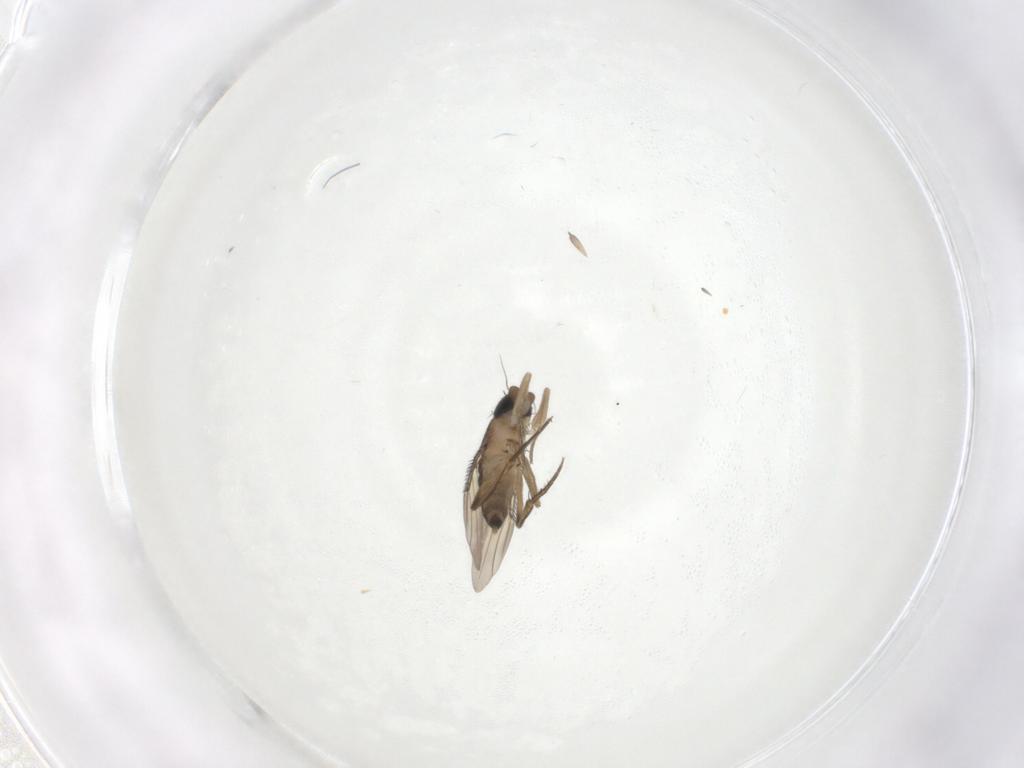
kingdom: Animalia
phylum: Arthropoda
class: Insecta
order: Diptera
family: Phoridae
